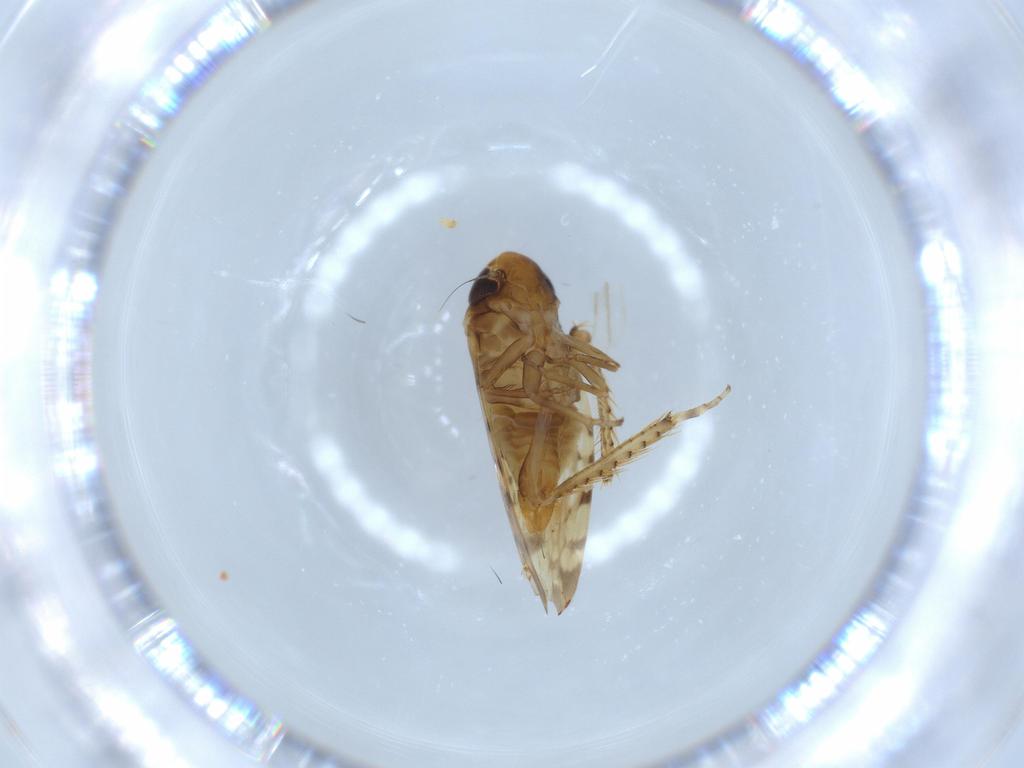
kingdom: Animalia
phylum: Arthropoda
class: Insecta
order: Hemiptera
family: Cicadellidae
